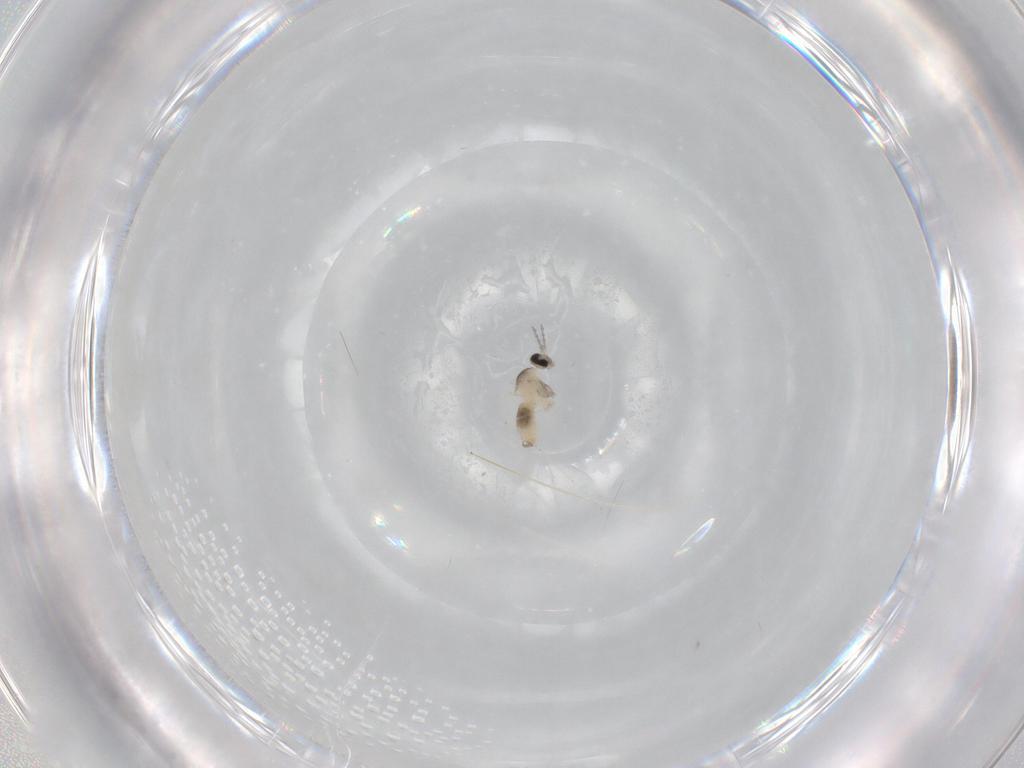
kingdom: Animalia
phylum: Arthropoda
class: Insecta
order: Diptera
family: Cecidomyiidae
